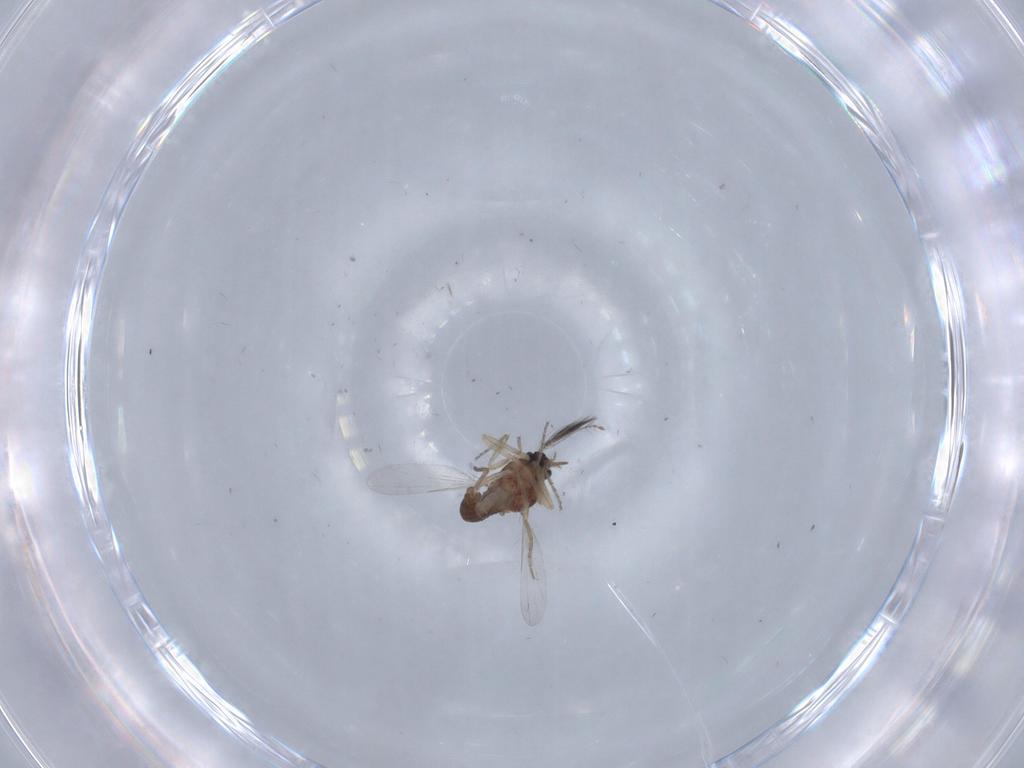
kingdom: Animalia
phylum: Arthropoda
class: Insecta
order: Diptera
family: Ceratopogonidae
